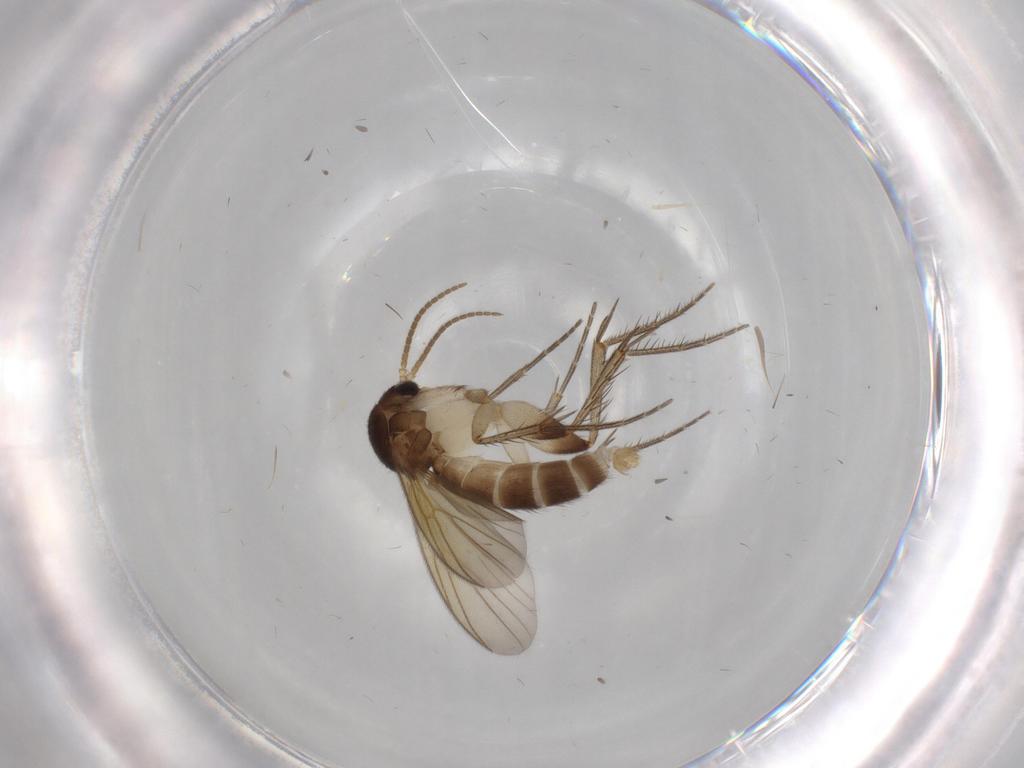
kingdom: Animalia
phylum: Arthropoda
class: Insecta
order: Diptera
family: Mycetophilidae
